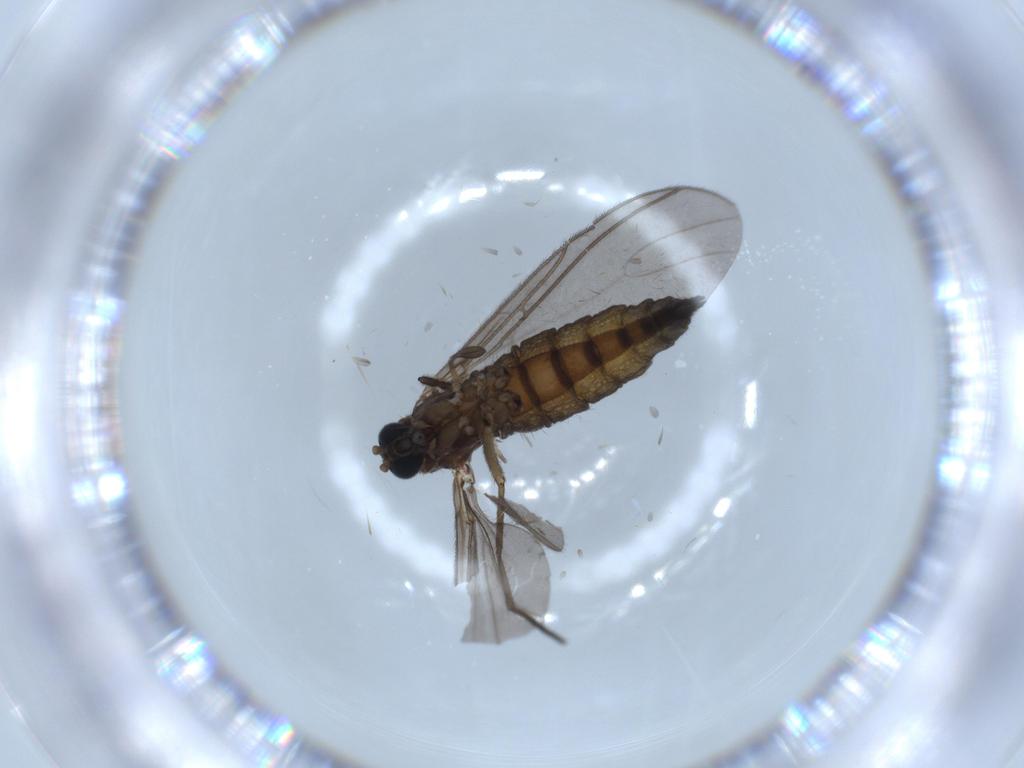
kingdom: Animalia
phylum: Arthropoda
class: Insecta
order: Diptera
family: Sciaridae
